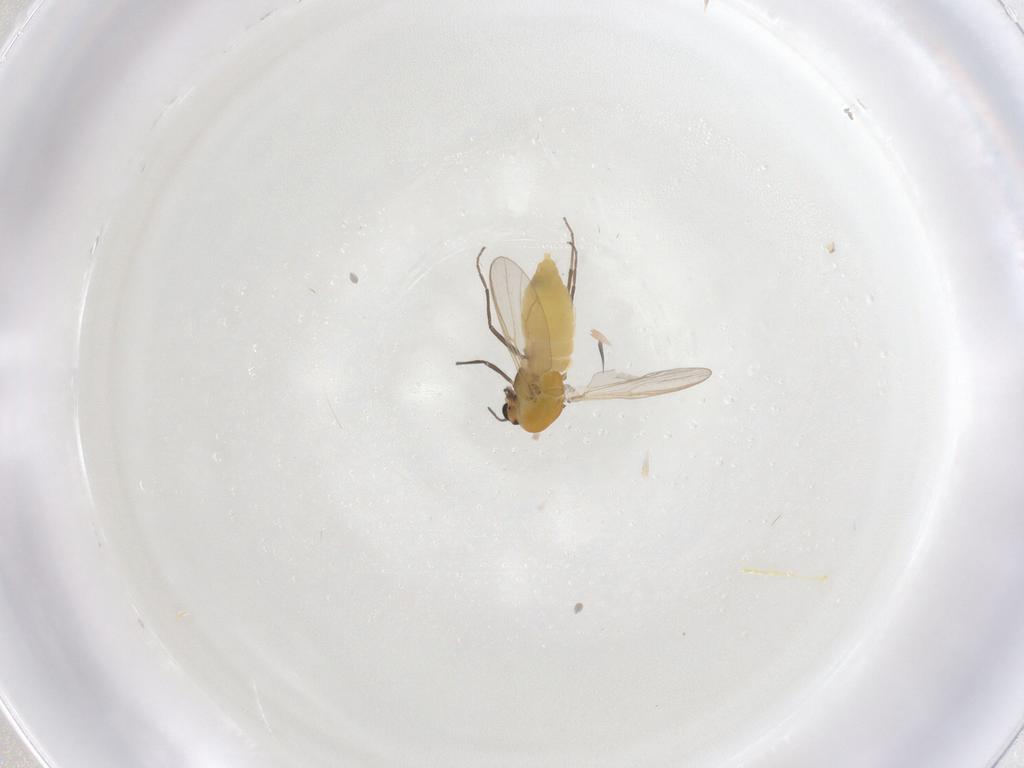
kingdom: Animalia
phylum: Arthropoda
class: Insecta
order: Diptera
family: Chironomidae
